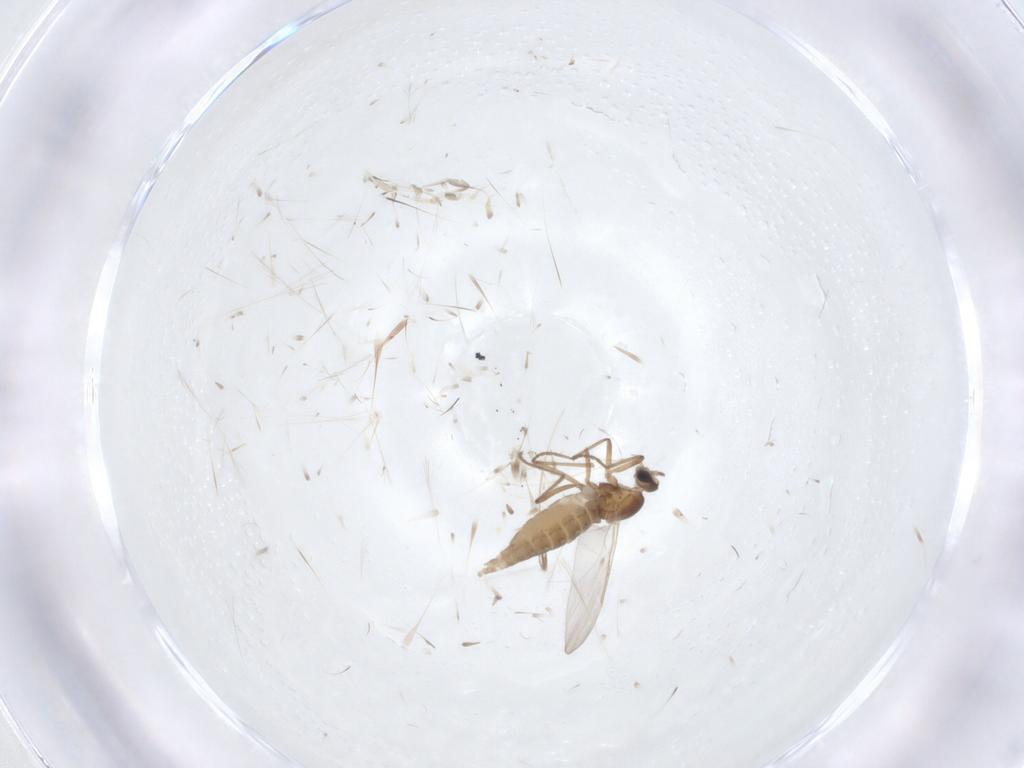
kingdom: Animalia
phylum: Arthropoda
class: Insecta
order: Diptera
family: Cecidomyiidae
